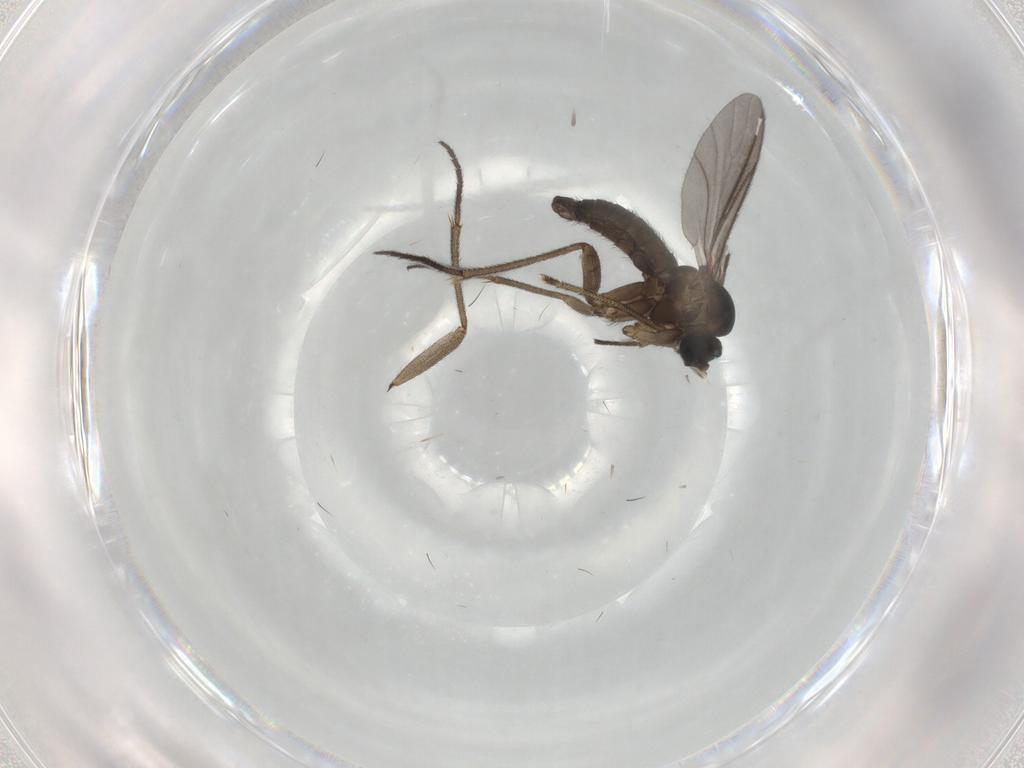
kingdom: Animalia
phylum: Arthropoda
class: Insecta
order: Diptera
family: Sciaridae
